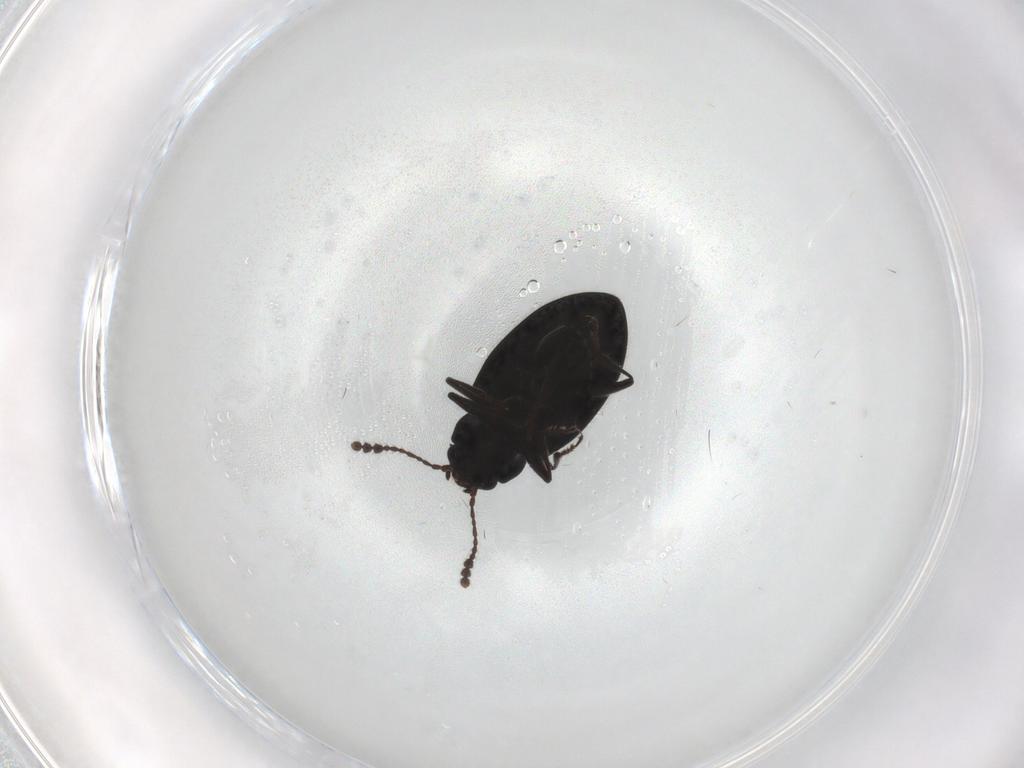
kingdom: Animalia
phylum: Arthropoda
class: Insecta
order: Coleoptera
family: Erotylidae
